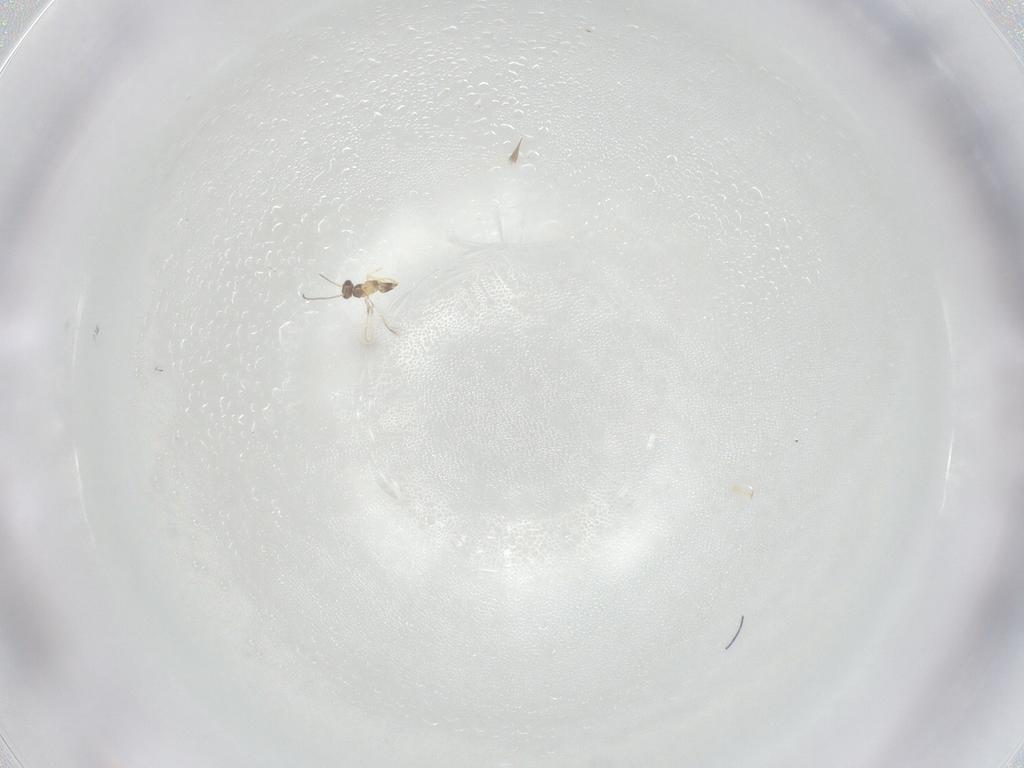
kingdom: Animalia
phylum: Arthropoda
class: Insecta
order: Hymenoptera
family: Mymaridae
